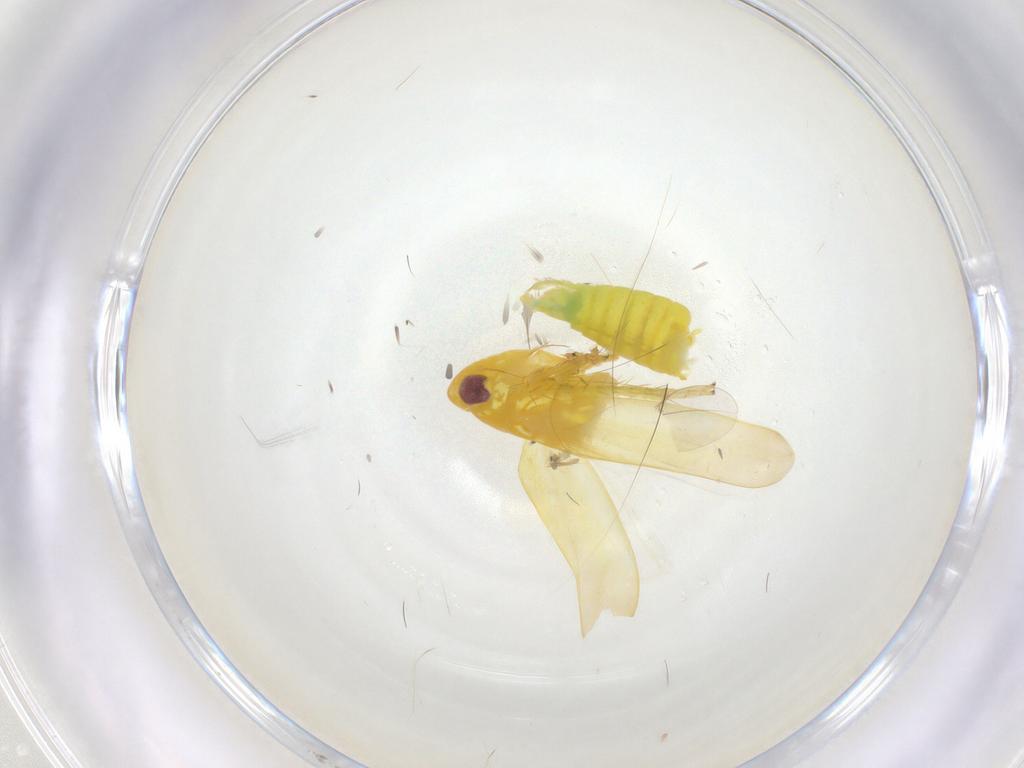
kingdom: Animalia
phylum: Arthropoda
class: Insecta
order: Hemiptera
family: Cicadellidae
